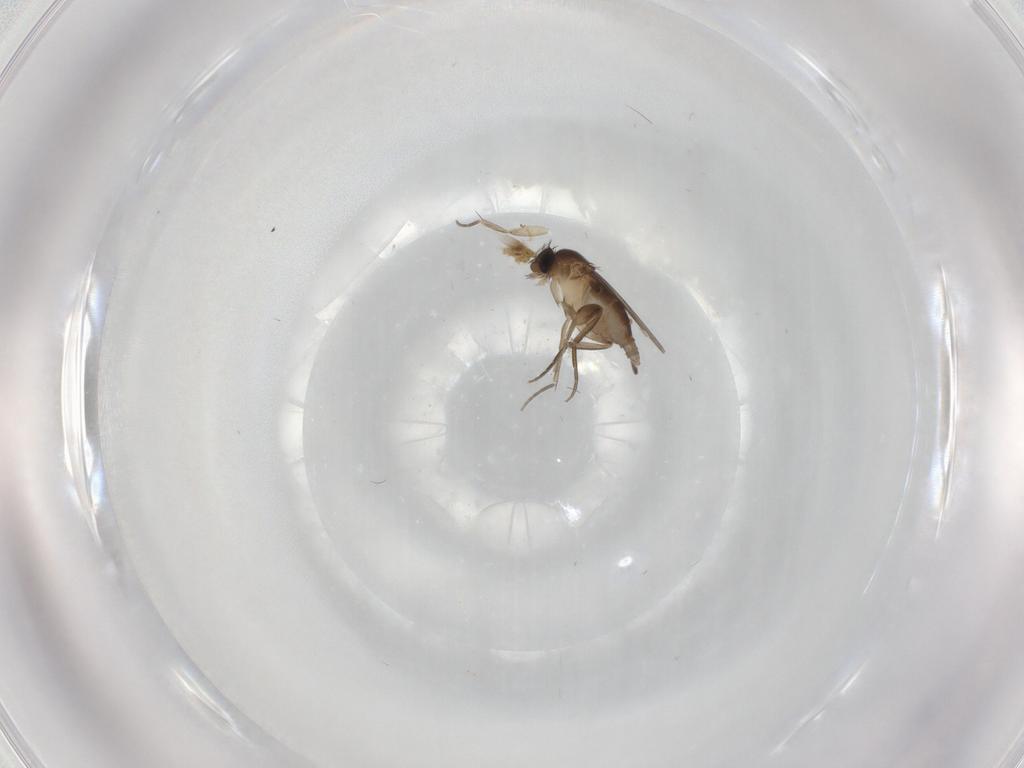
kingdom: Animalia
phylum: Arthropoda
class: Insecta
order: Diptera
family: Phoridae
